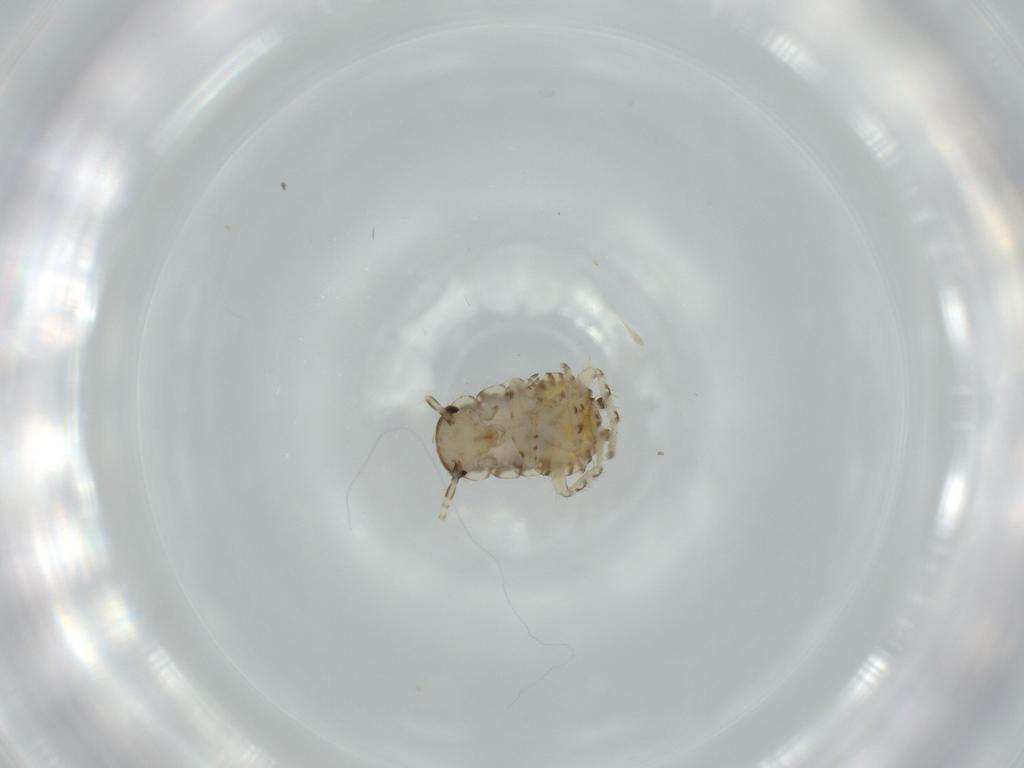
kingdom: Animalia
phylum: Arthropoda
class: Insecta
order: Blattodea
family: Ectobiidae
